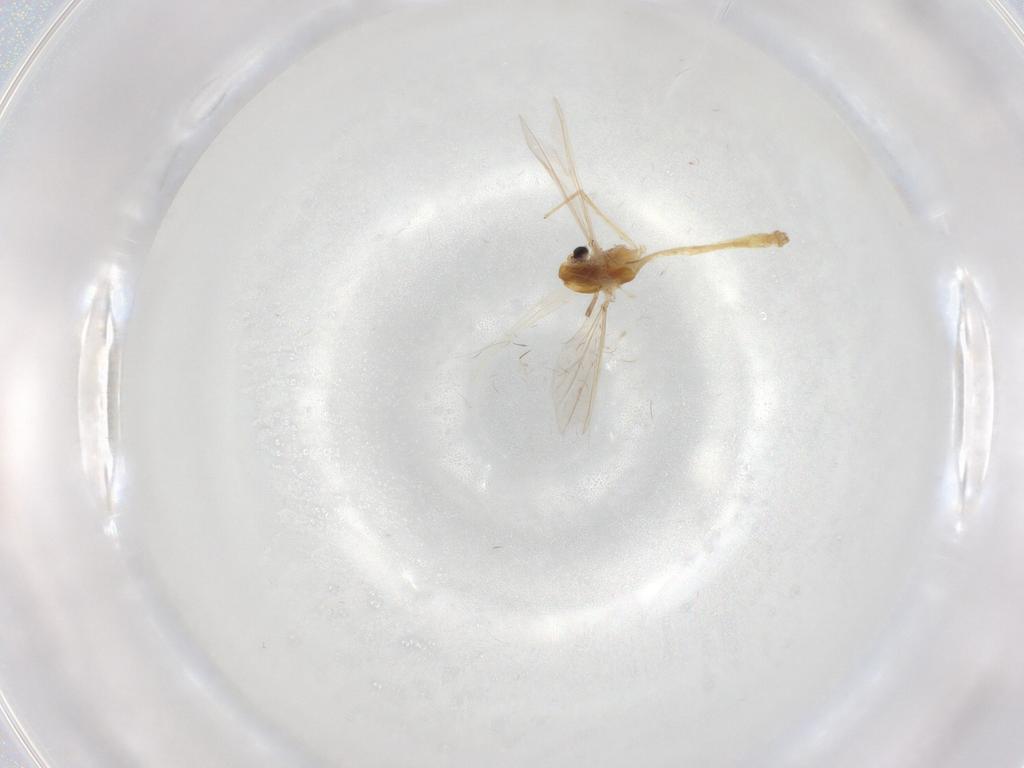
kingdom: Animalia
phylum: Arthropoda
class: Insecta
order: Diptera
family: Chironomidae
